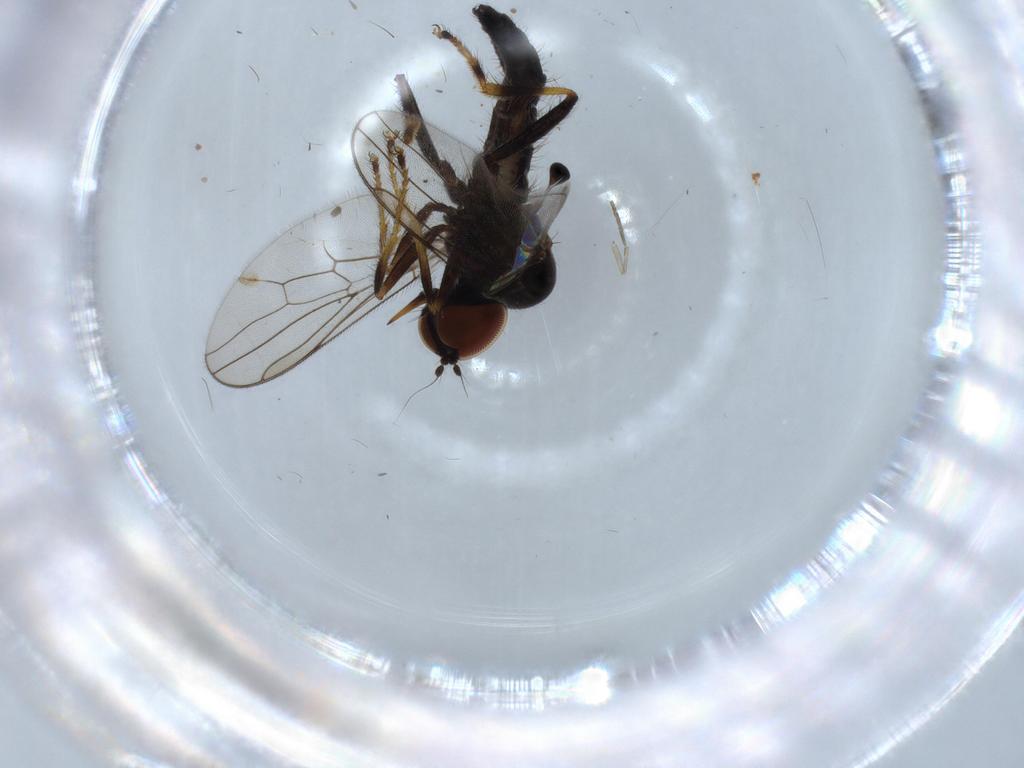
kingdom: Animalia
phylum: Arthropoda
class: Insecta
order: Diptera
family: Hybotidae
